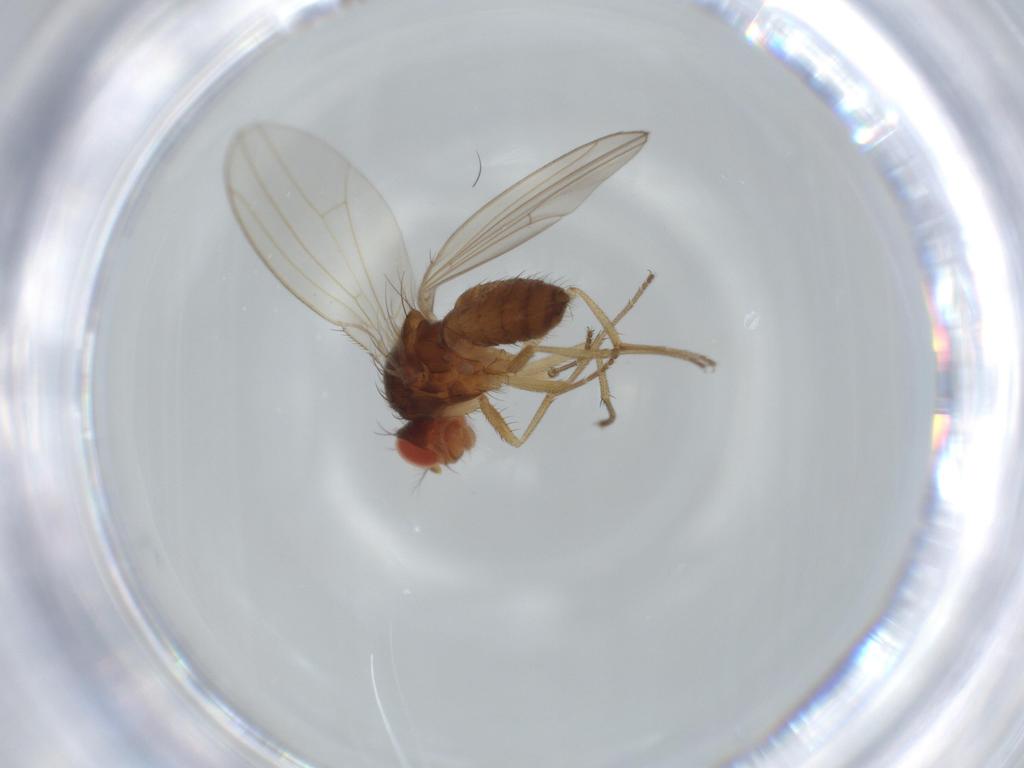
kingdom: Animalia
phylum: Arthropoda
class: Insecta
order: Diptera
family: Drosophilidae
